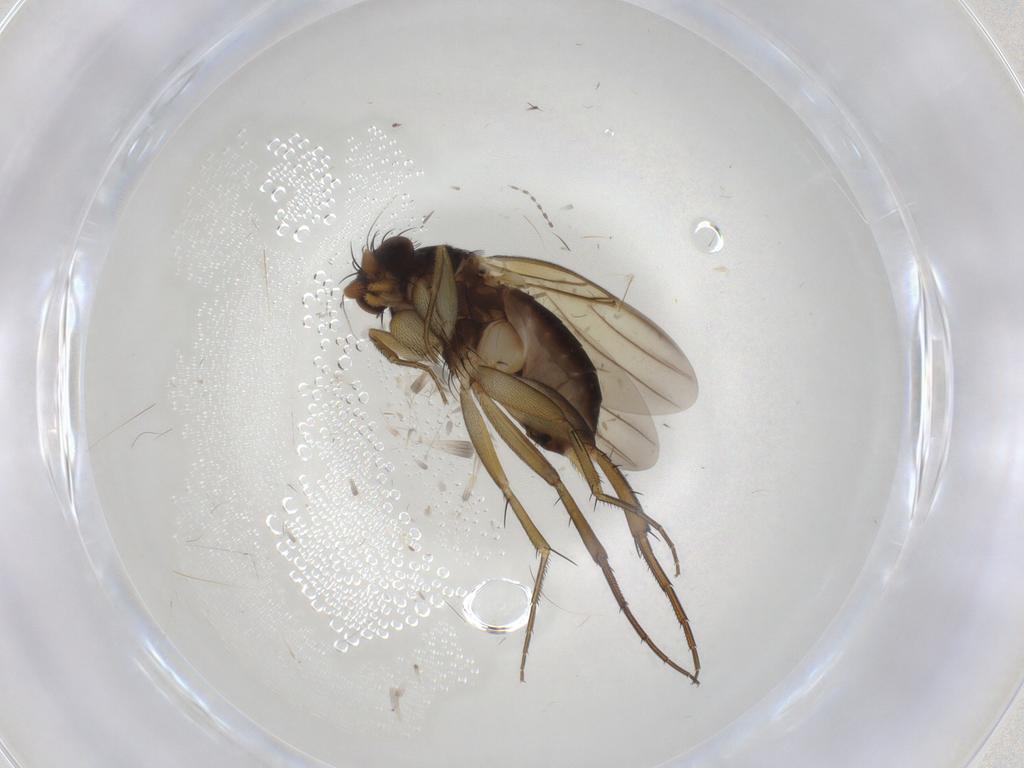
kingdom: Animalia
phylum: Arthropoda
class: Insecta
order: Diptera
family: Phoridae
